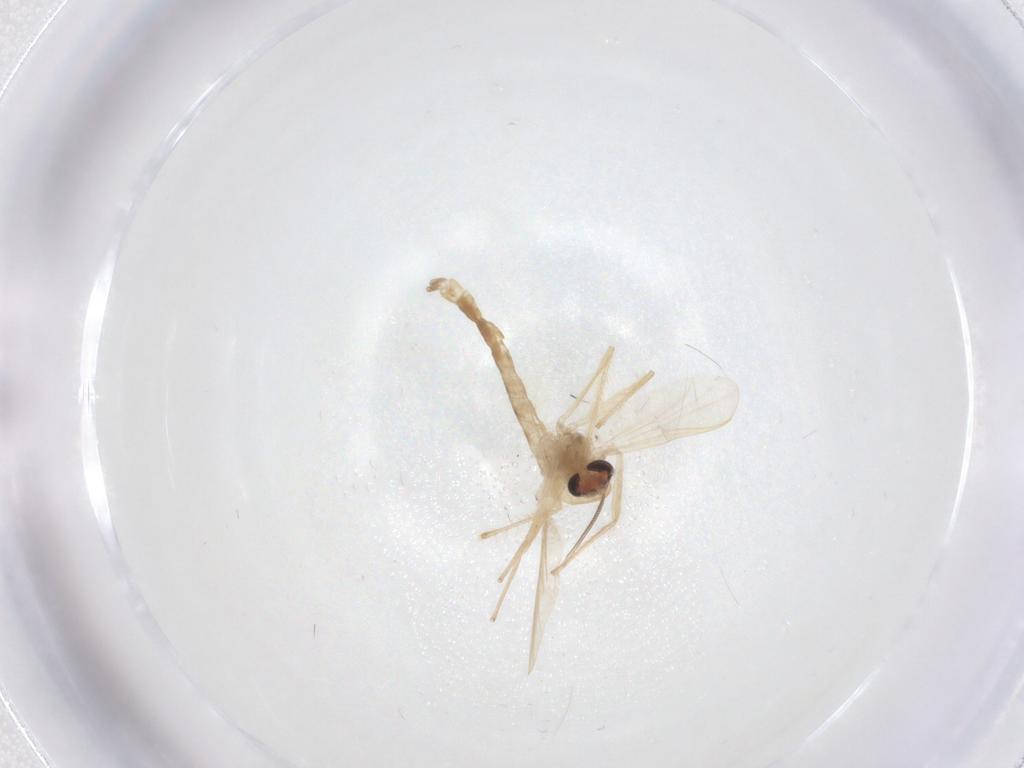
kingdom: Animalia
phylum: Arthropoda
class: Insecta
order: Diptera
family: Chironomidae
